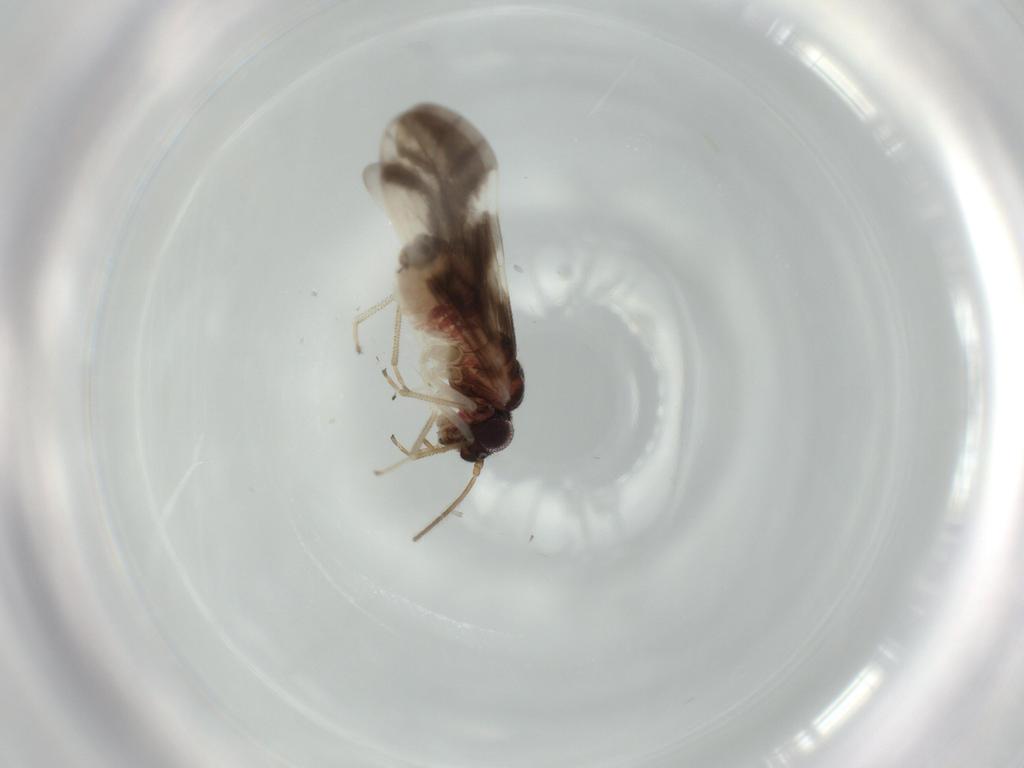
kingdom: Animalia
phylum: Arthropoda
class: Insecta
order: Psocodea
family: Caeciliusidae
